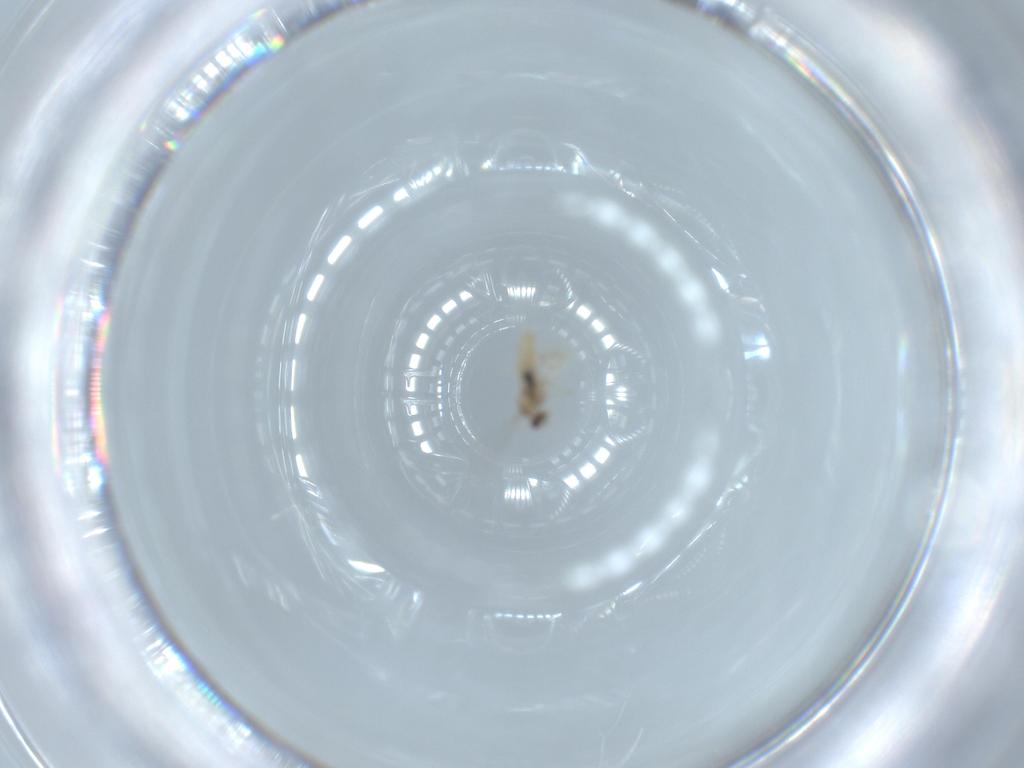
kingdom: Animalia
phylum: Arthropoda
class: Insecta
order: Diptera
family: Cecidomyiidae
